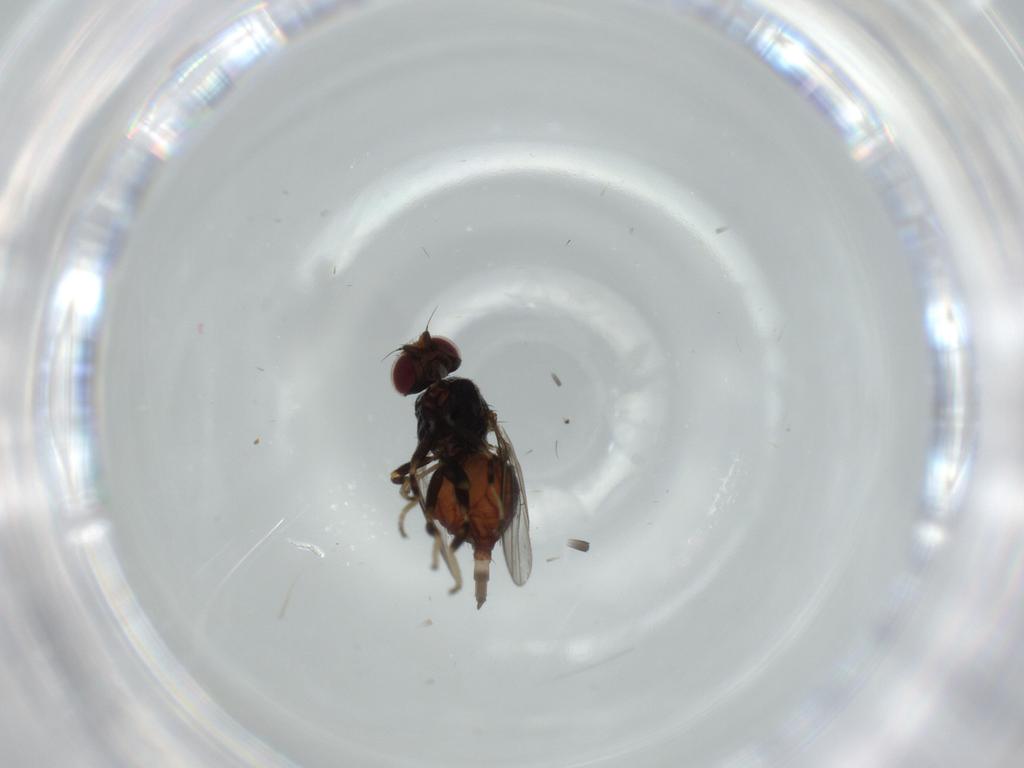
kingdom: Animalia
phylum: Arthropoda
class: Insecta
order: Diptera
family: Chloropidae
